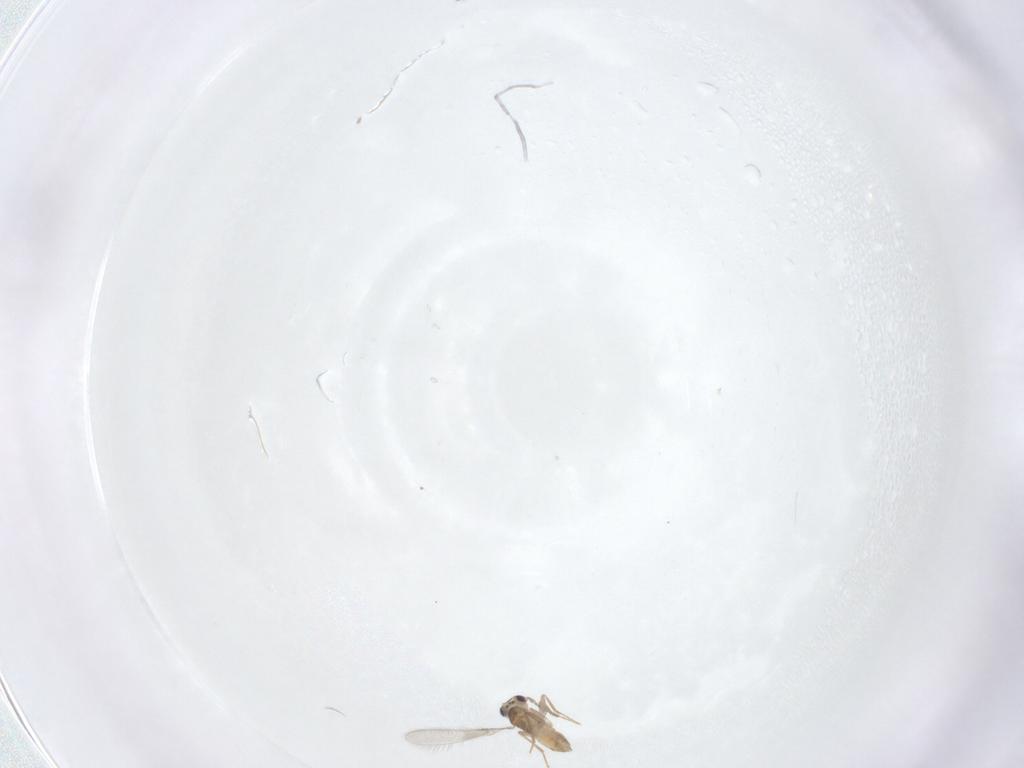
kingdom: Animalia
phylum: Arthropoda
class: Insecta
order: Hymenoptera
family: Mymaridae
